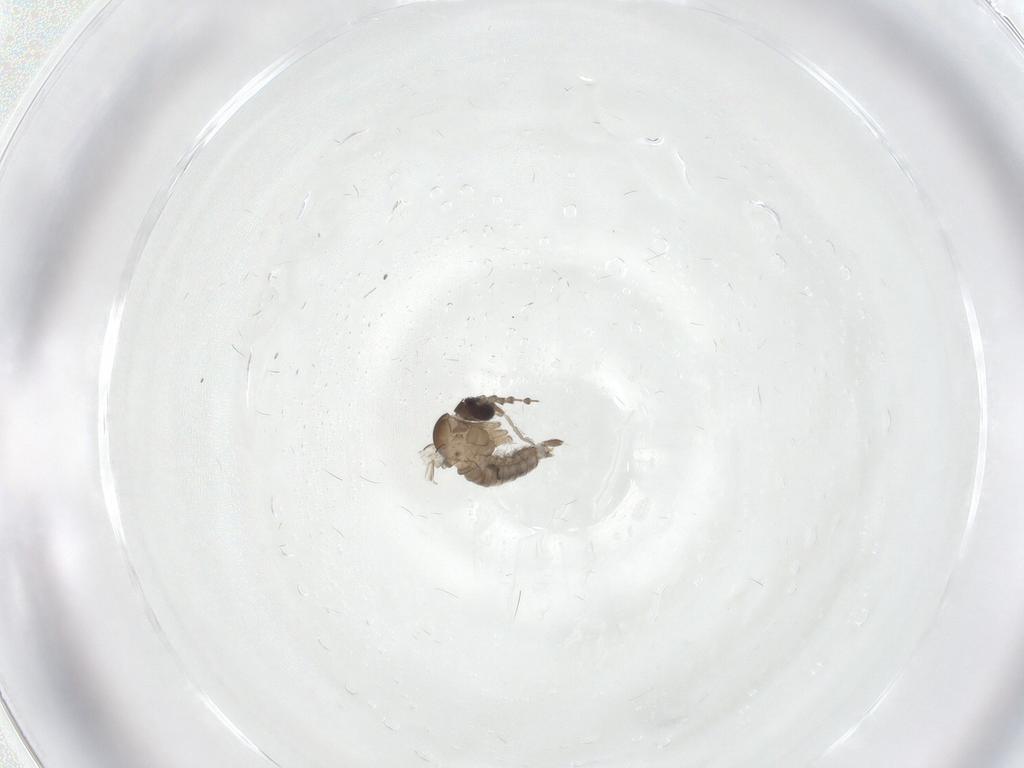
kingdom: Animalia
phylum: Arthropoda
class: Insecta
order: Diptera
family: Psychodidae
